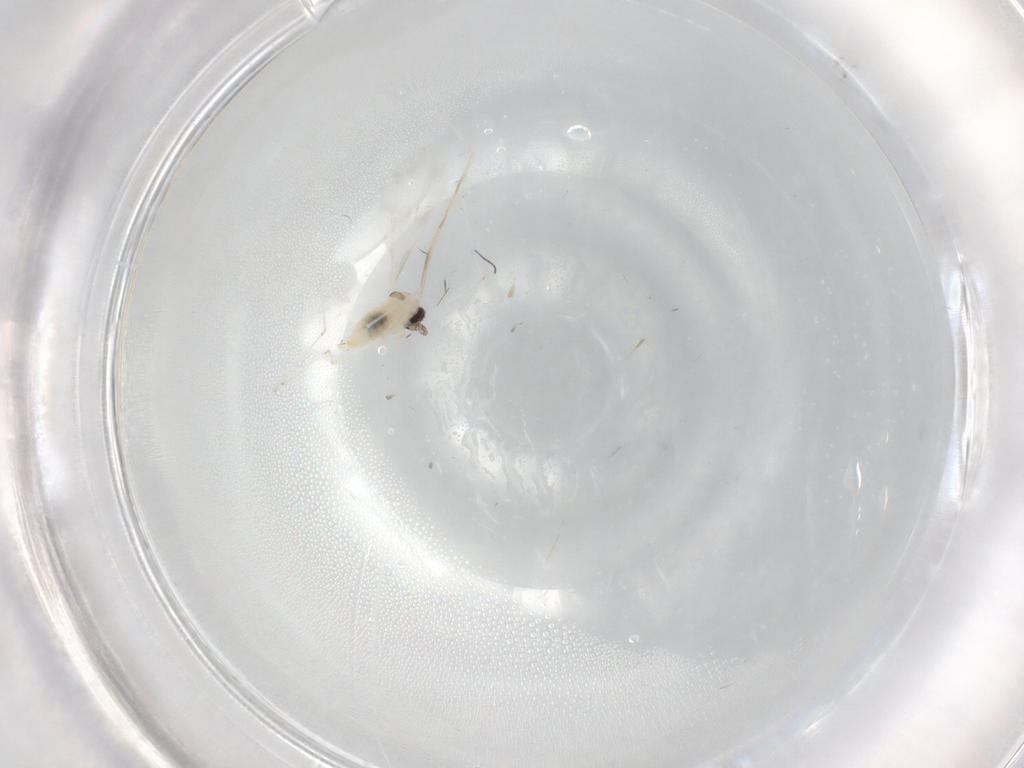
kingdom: Animalia
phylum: Arthropoda
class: Insecta
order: Diptera
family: Cecidomyiidae
